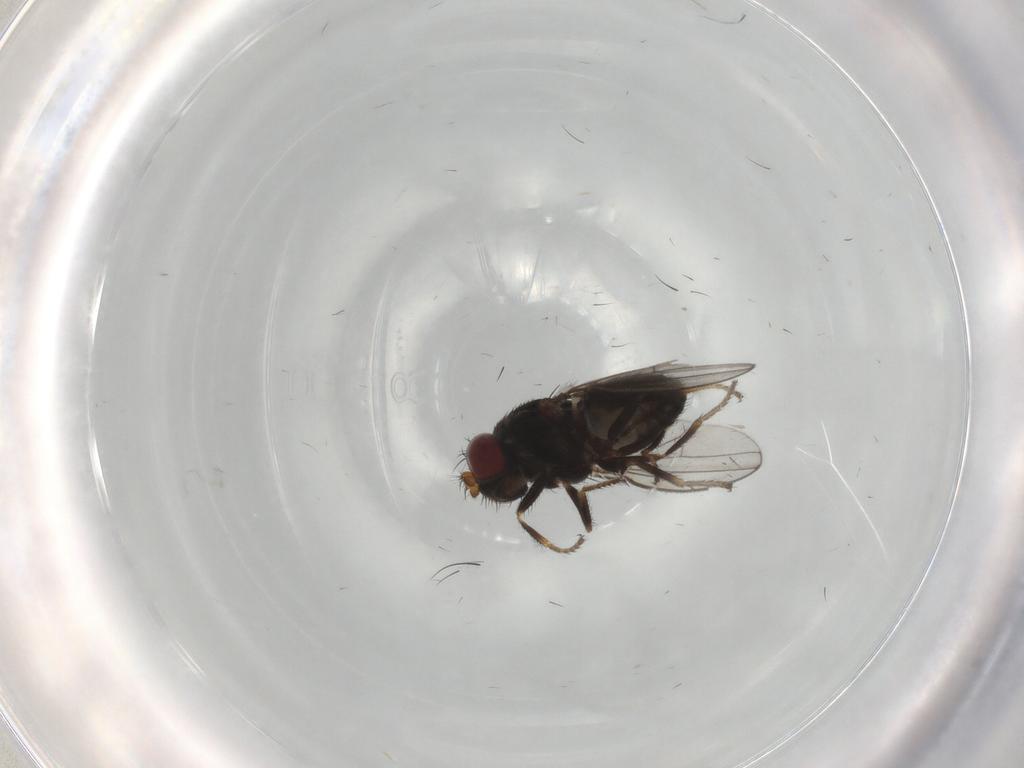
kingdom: Animalia
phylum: Arthropoda
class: Insecta
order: Diptera
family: Ephydridae
